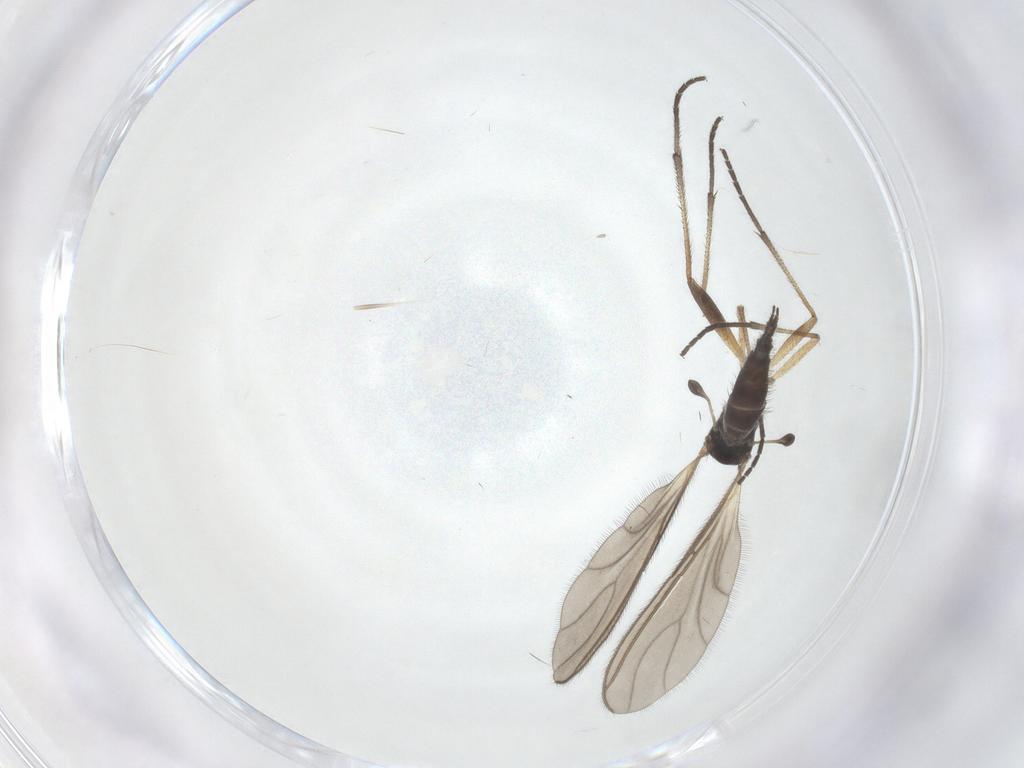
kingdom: Animalia
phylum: Arthropoda
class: Insecta
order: Diptera
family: Sciaridae
